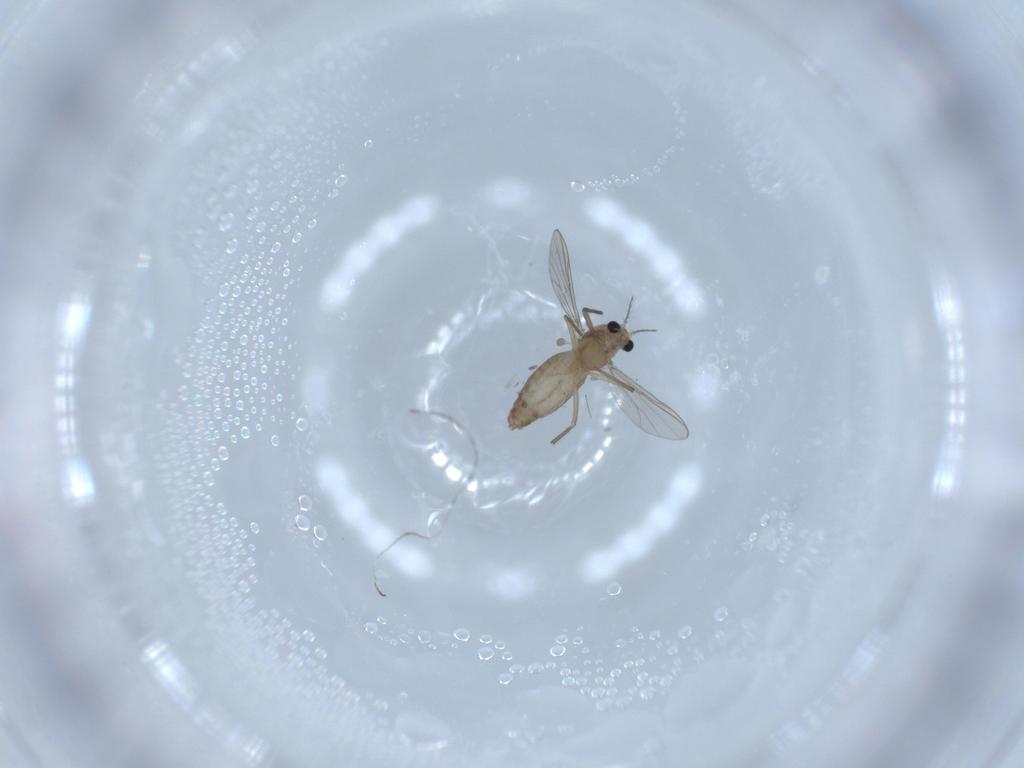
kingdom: Animalia
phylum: Arthropoda
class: Insecta
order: Diptera
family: Chironomidae
